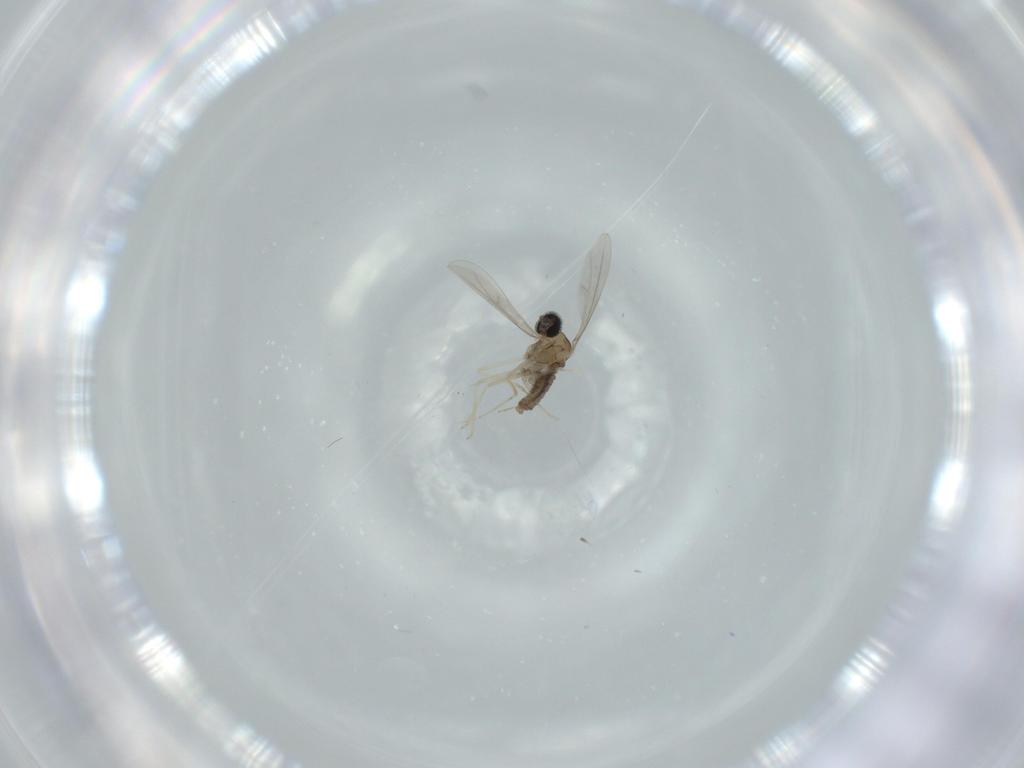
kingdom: Animalia
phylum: Arthropoda
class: Insecta
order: Diptera
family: Cecidomyiidae
